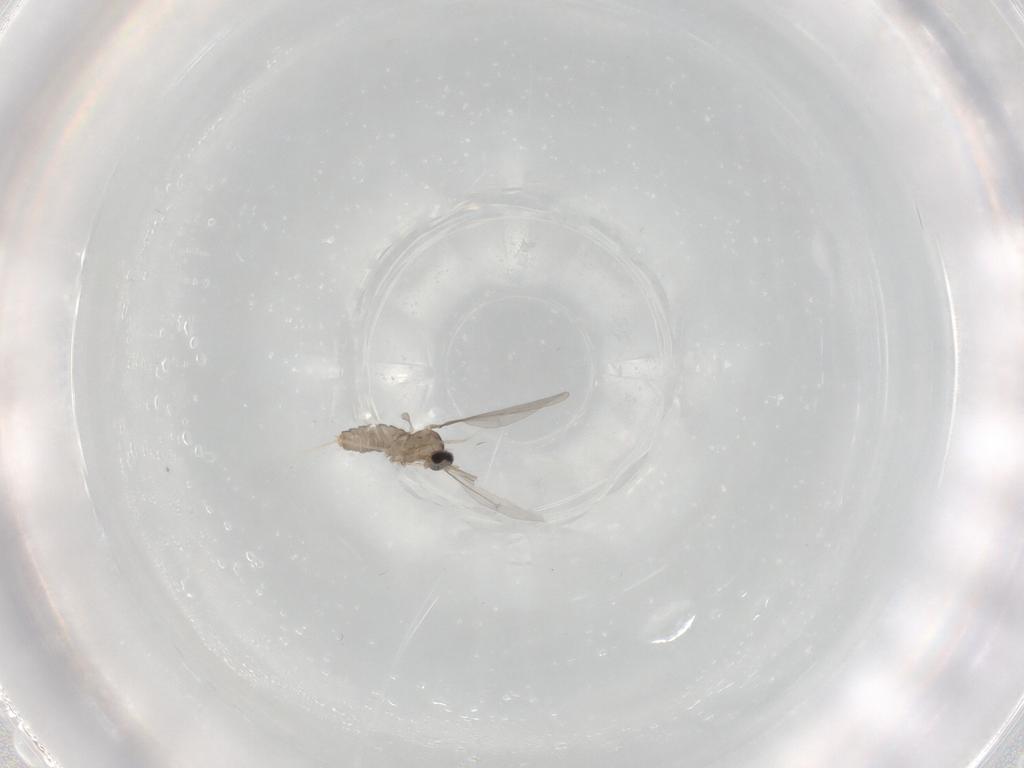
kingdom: Animalia
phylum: Arthropoda
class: Insecta
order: Diptera
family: Cecidomyiidae
